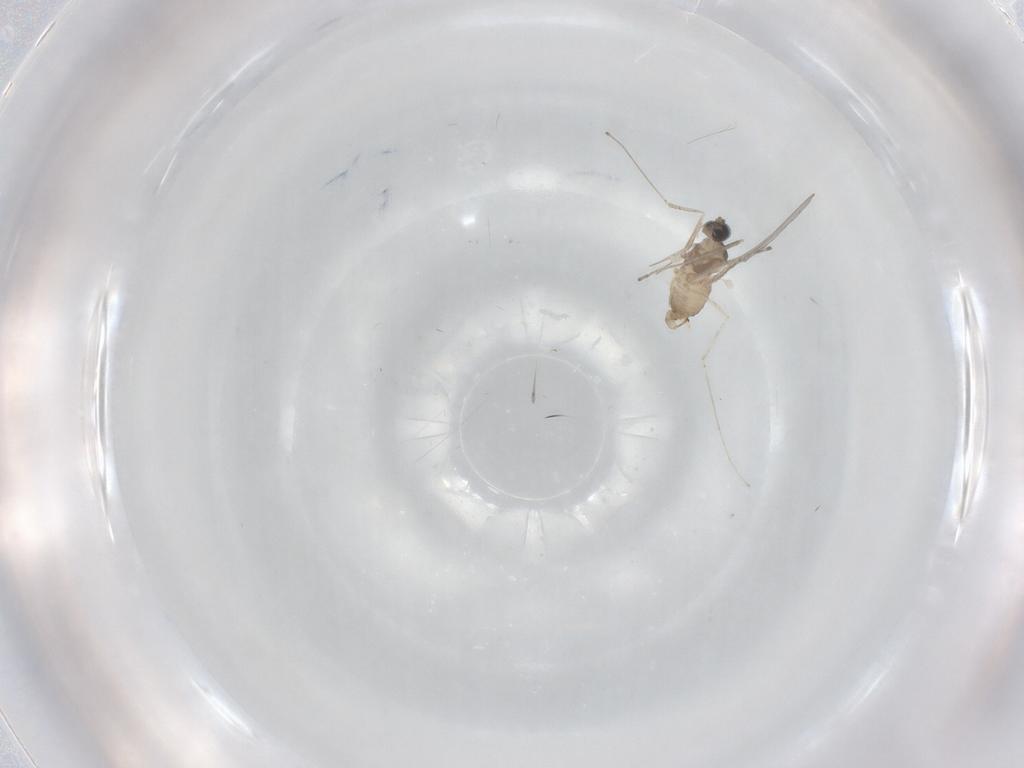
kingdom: Animalia
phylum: Arthropoda
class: Insecta
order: Diptera
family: Cecidomyiidae
